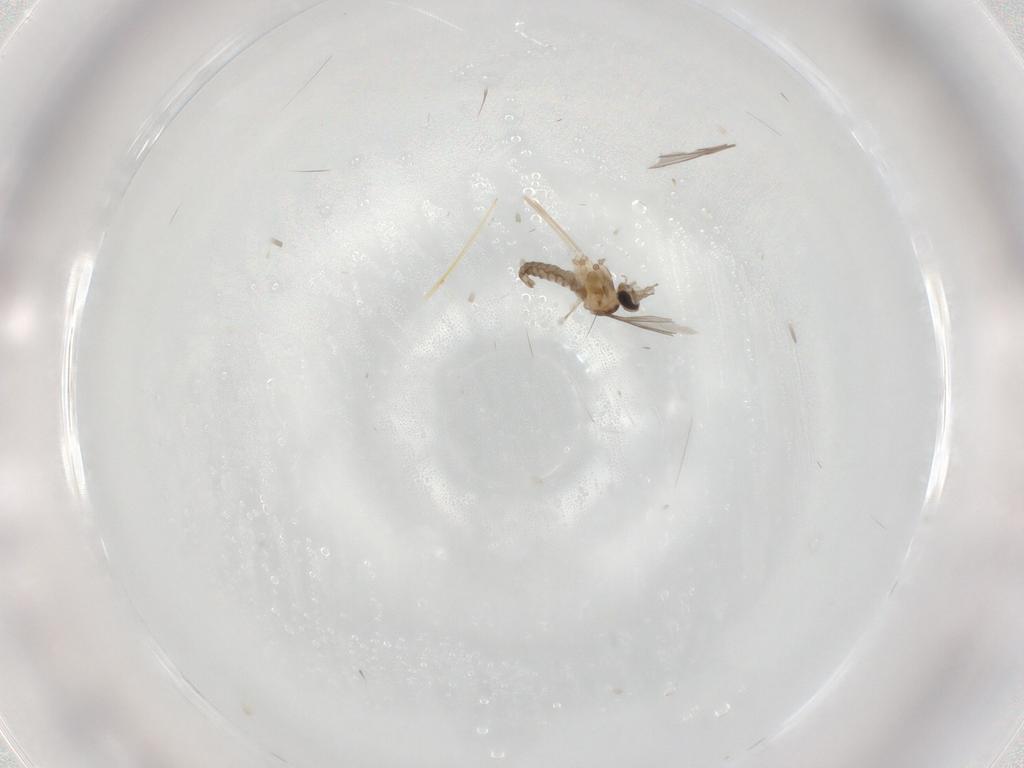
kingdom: Animalia
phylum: Arthropoda
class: Insecta
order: Diptera
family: Cecidomyiidae
